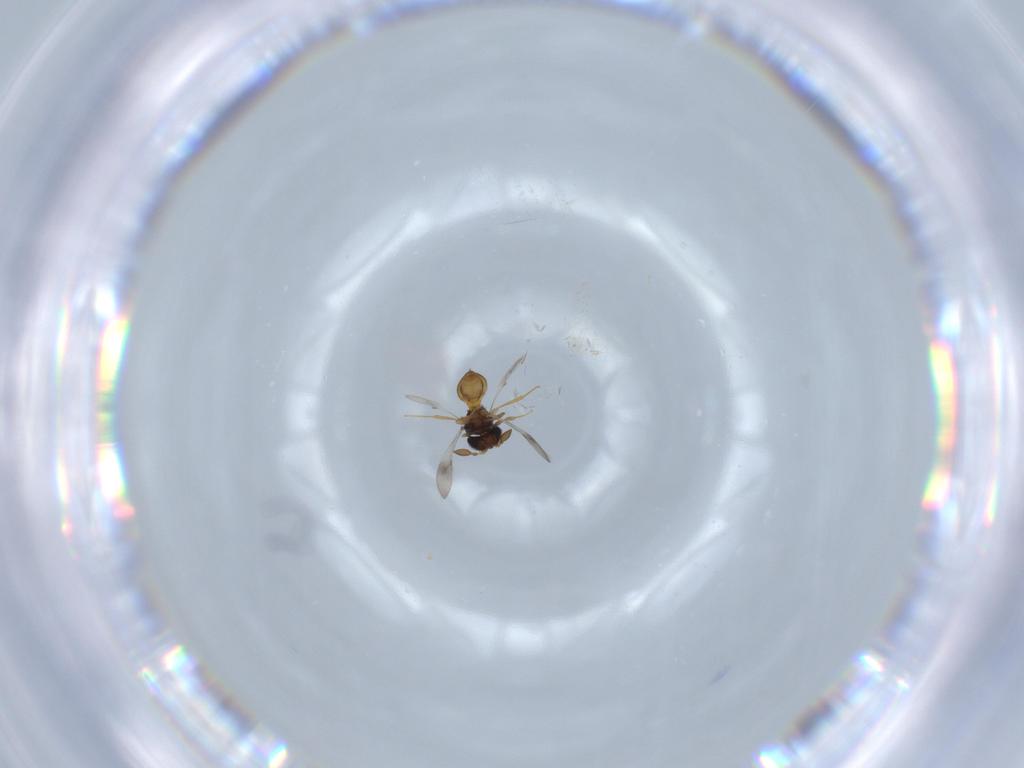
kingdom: Animalia
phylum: Arthropoda
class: Insecta
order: Hymenoptera
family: Scelionidae
